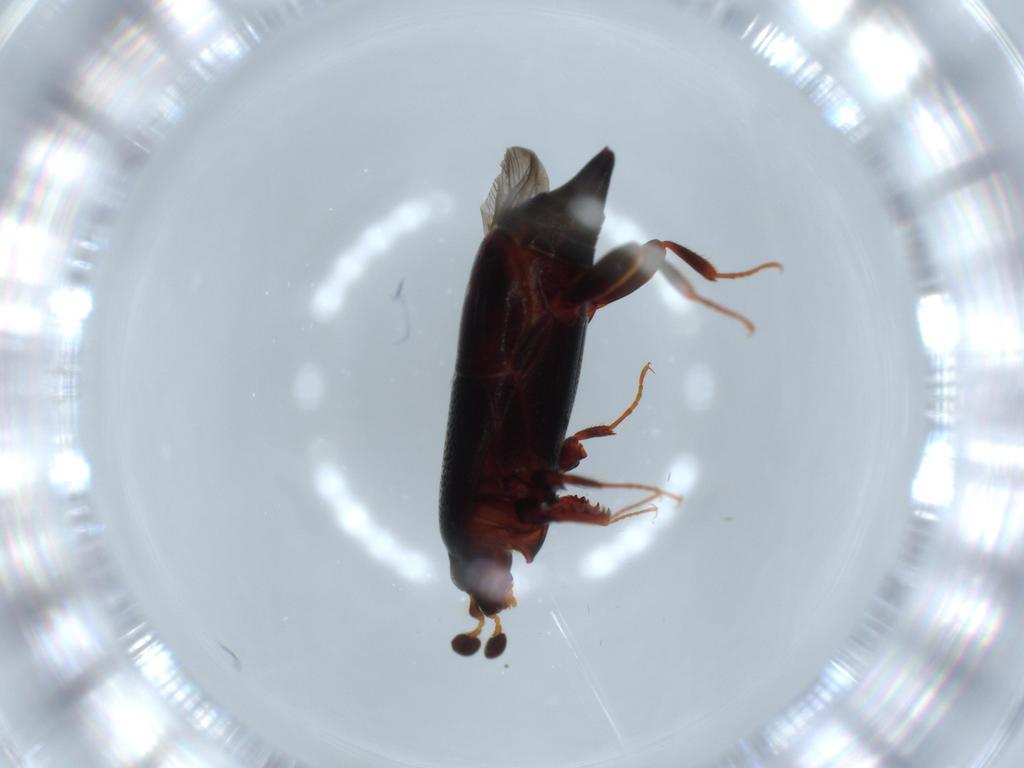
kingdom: Animalia
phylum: Arthropoda
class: Insecta
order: Coleoptera
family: Histeridae
